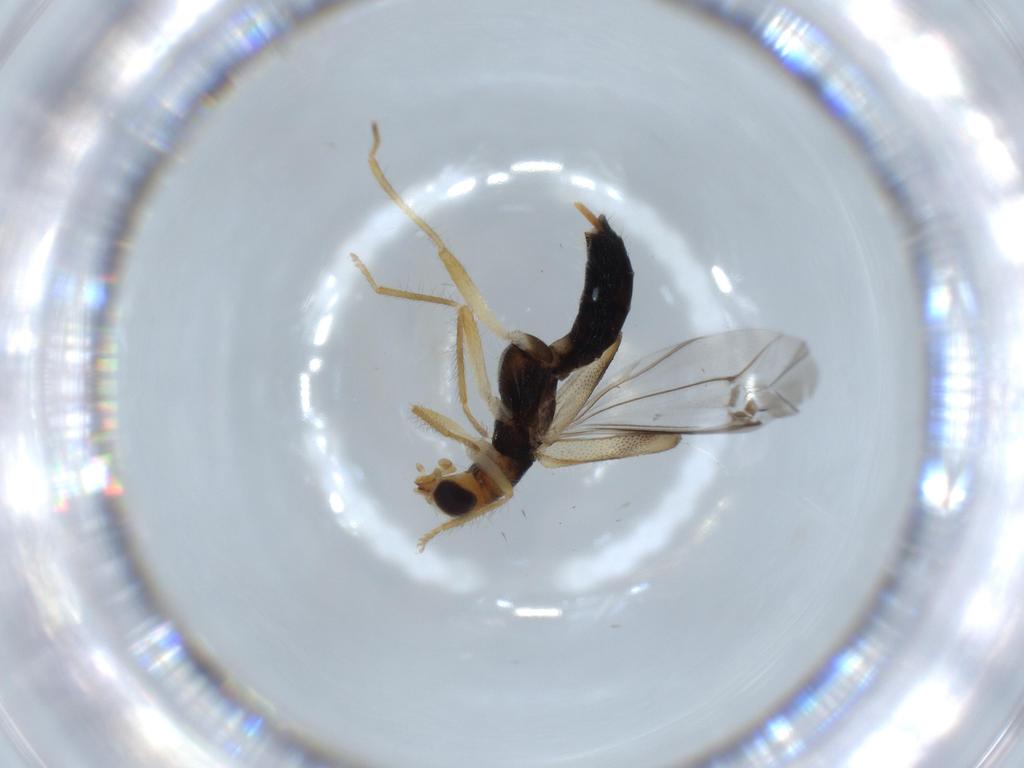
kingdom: Animalia
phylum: Arthropoda
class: Insecta
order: Coleoptera
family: Cleridae
